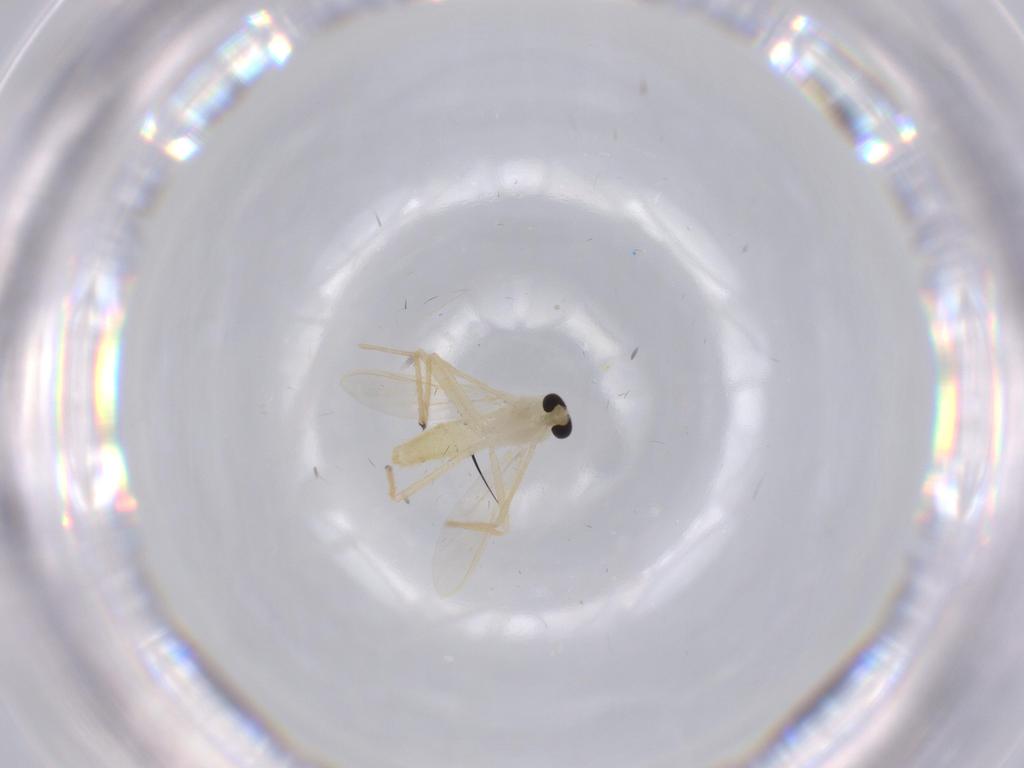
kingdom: Animalia
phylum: Arthropoda
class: Insecta
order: Diptera
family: Chironomidae
